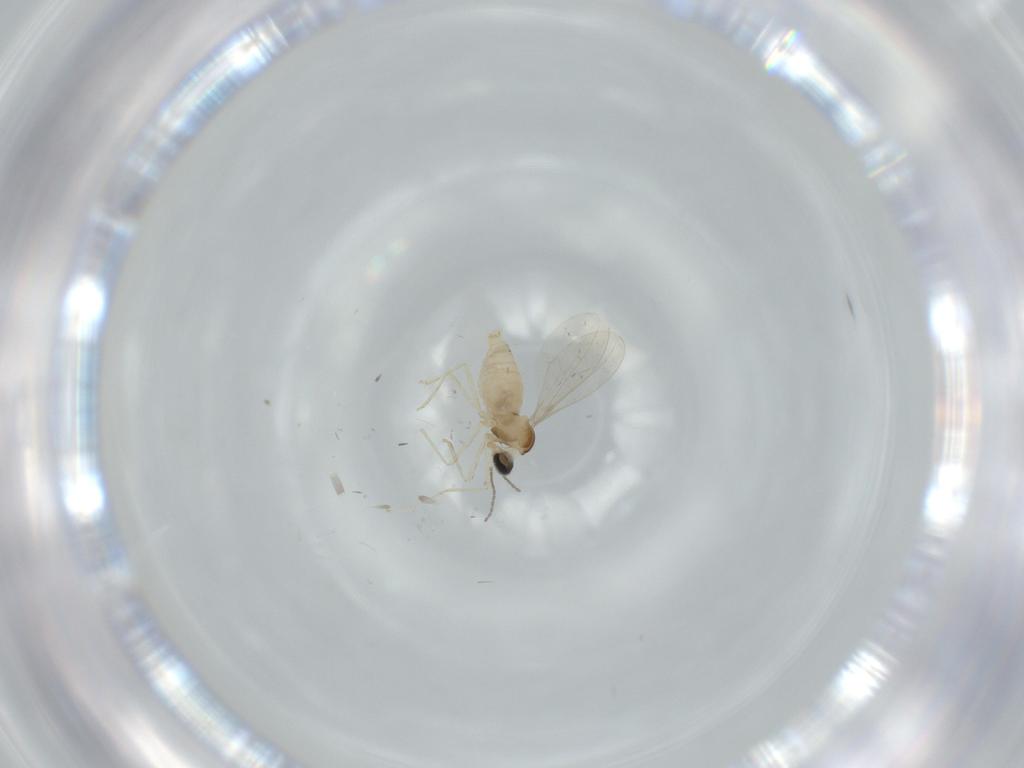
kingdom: Animalia
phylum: Arthropoda
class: Insecta
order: Diptera
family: Cecidomyiidae
